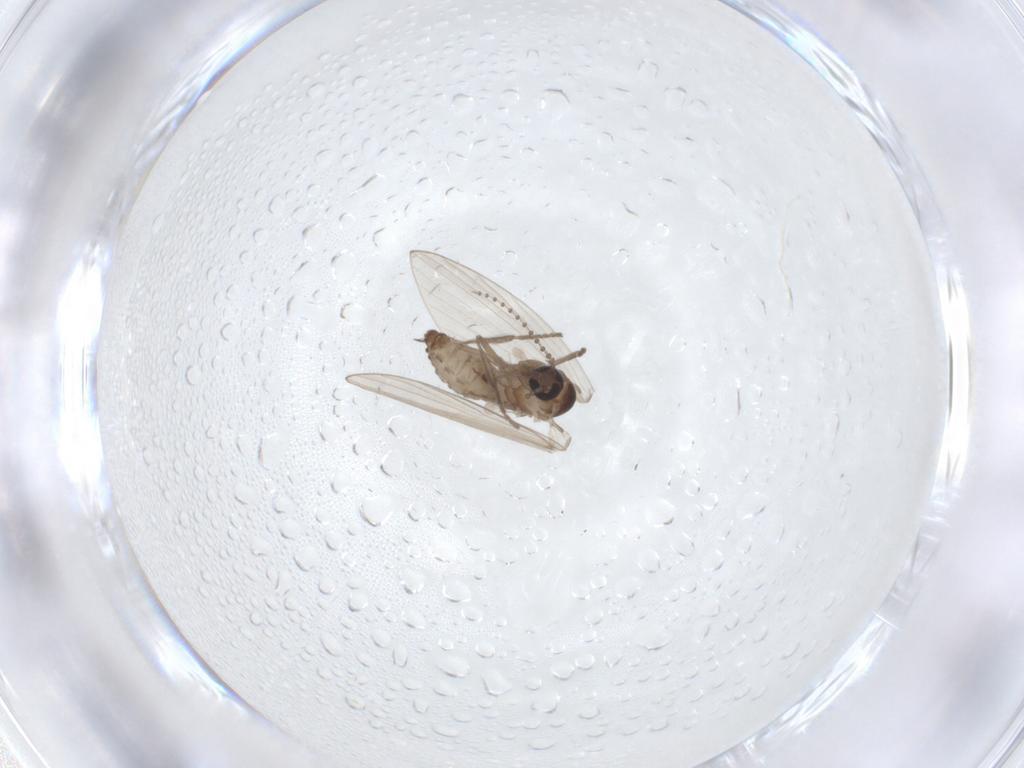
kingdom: Animalia
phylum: Arthropoda
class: Insecta
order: Diptera
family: Psychodidae
